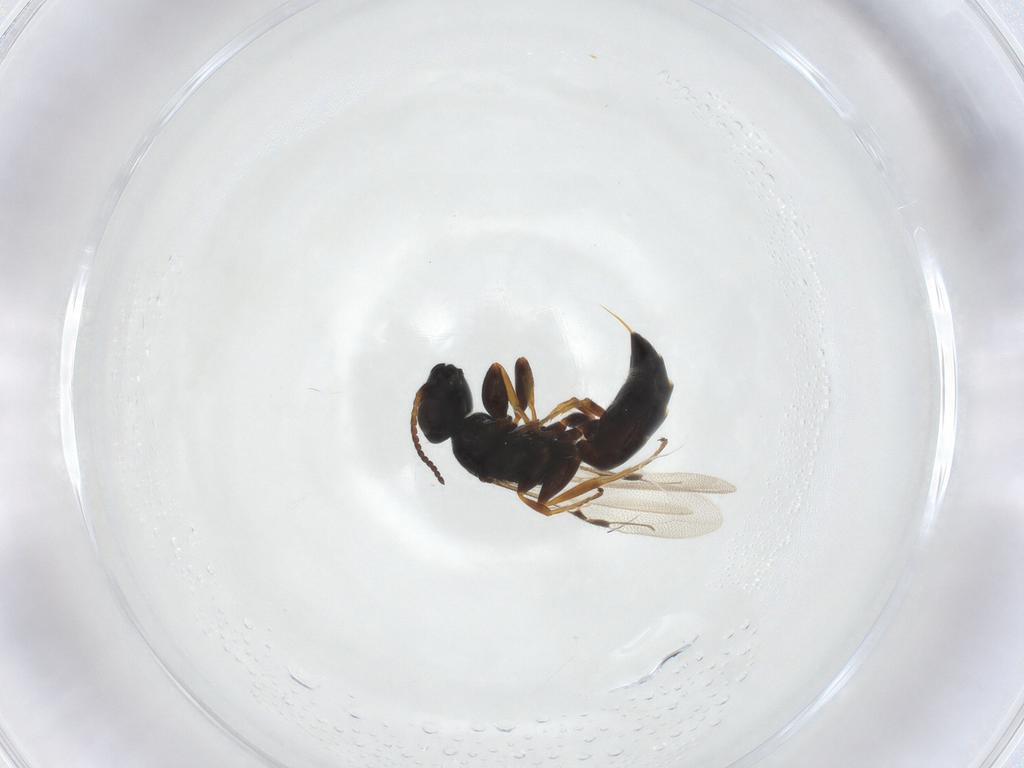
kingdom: Animalia
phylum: Arthropoda
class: Insecta
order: Hymenoptera
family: Bethylidae
